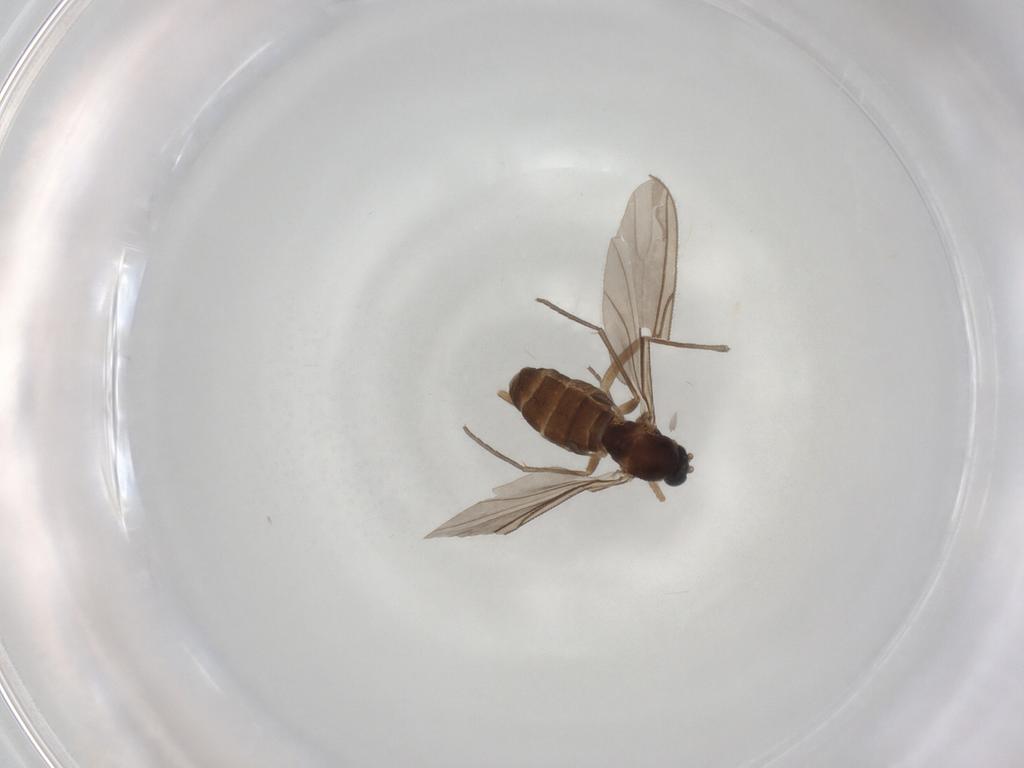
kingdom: Animalia
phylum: Arthropoda
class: Insecta
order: Diptera
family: Sciaridae
